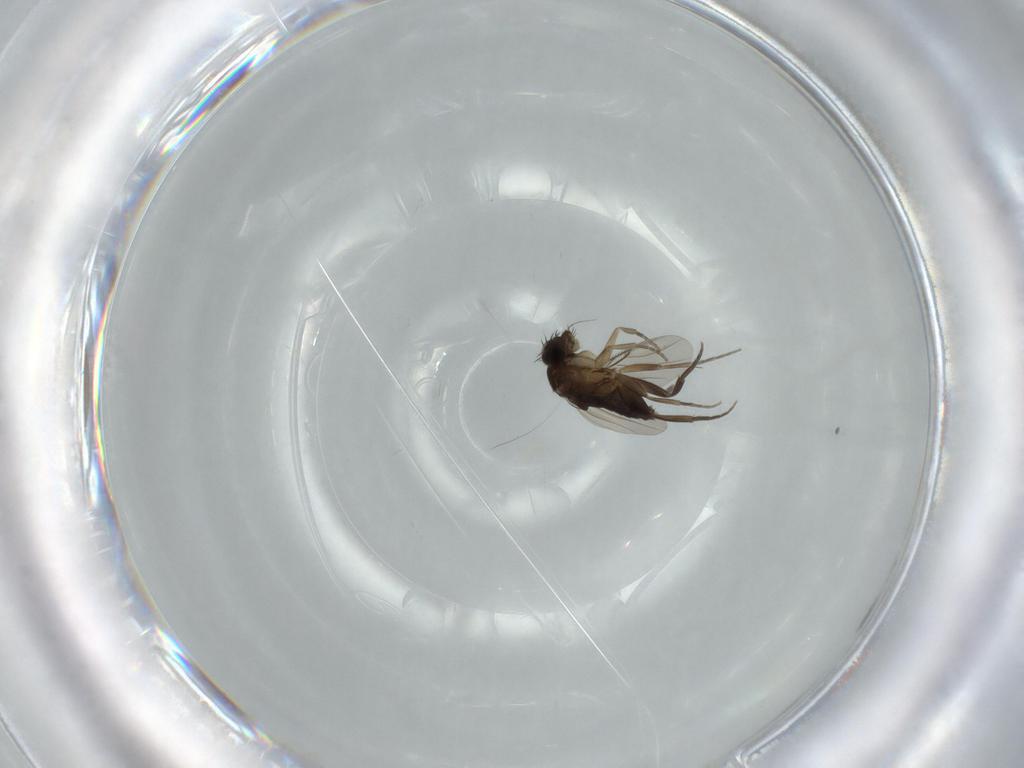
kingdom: Animalia
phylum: Arthropoda
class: Insecta
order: Diptera
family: Phoridae
